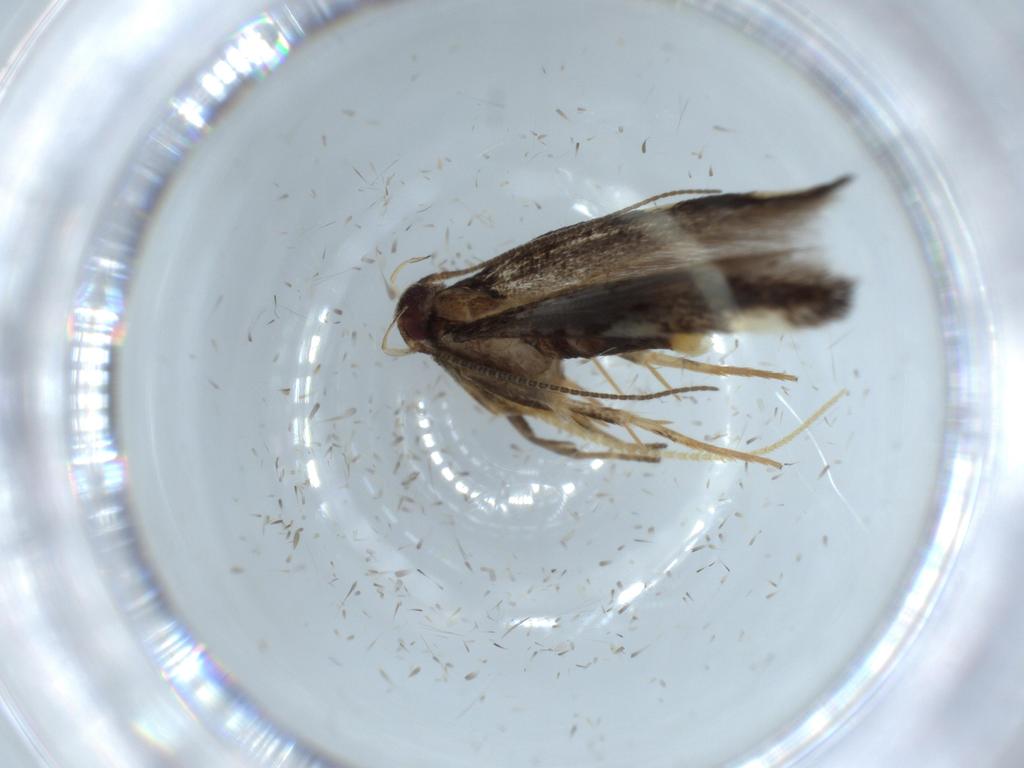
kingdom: Animalia
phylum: Arthropoda
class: Insecta
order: Lepidoptera
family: Cosmopterigidae
